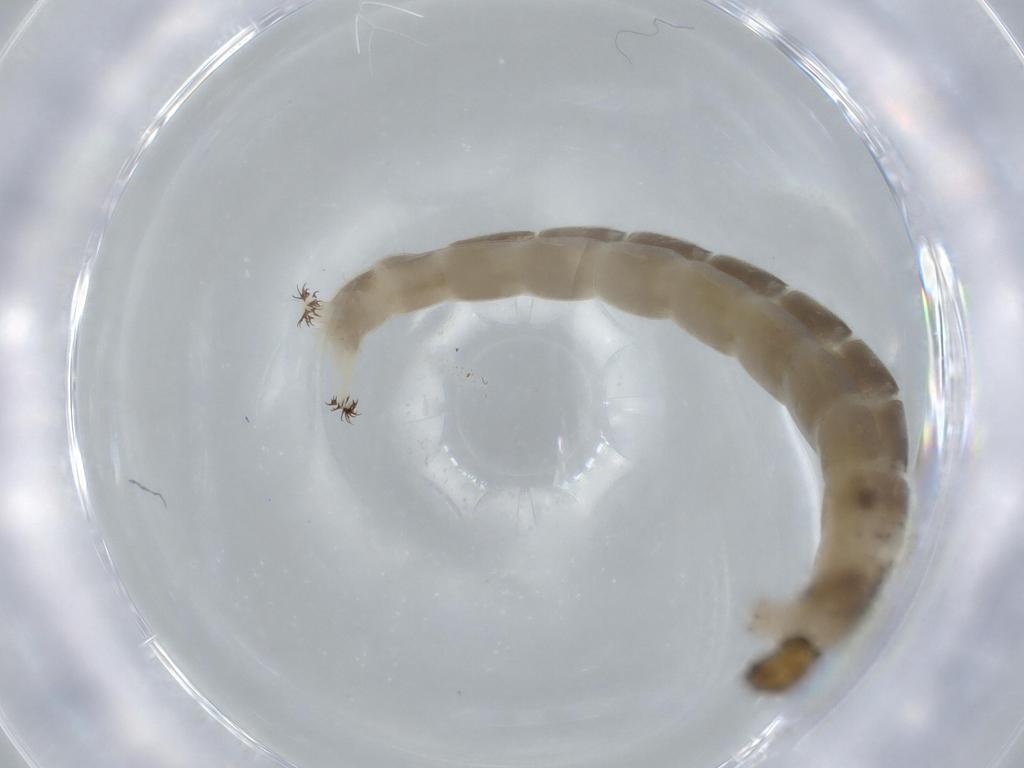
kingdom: Animalia
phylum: Arthropoda
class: Insecta
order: Diptera
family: Chironomidae
